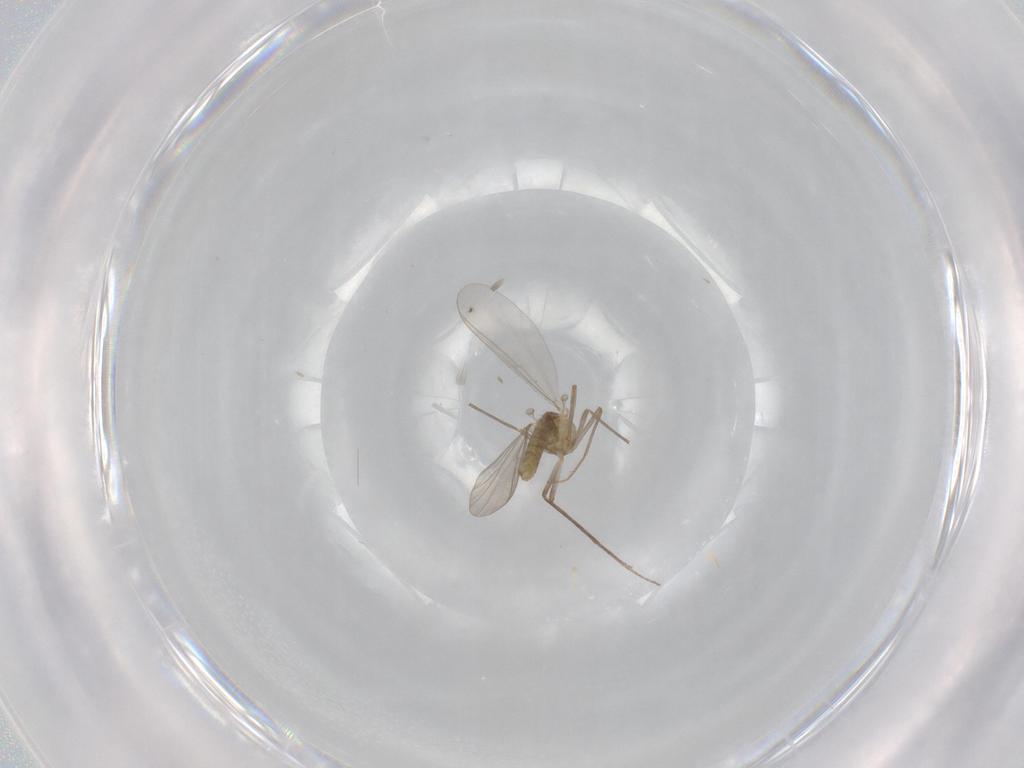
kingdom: Animalia
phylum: Arthropoda
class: Insecta
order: Diptera
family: Chironomidae
